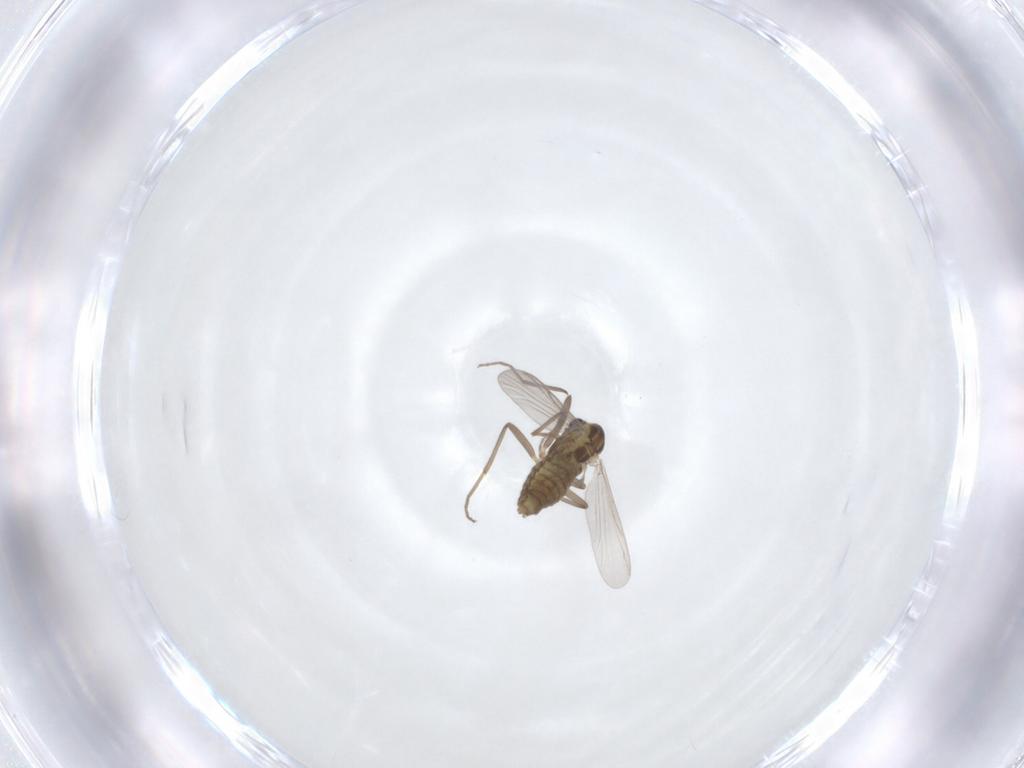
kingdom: Animalia
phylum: Arthropoda
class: Insecta
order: Diptera
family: Chironomidae
